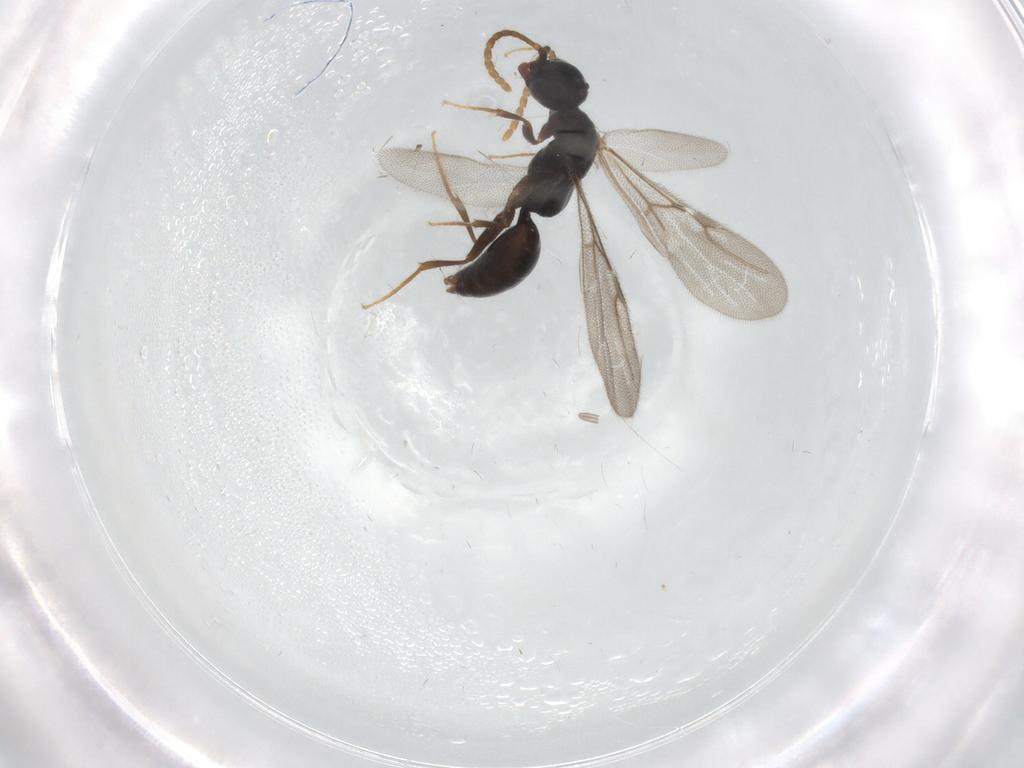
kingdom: Animalia
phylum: Arthropoda
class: Insecta
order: Hymenoptera
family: Bethylidae
